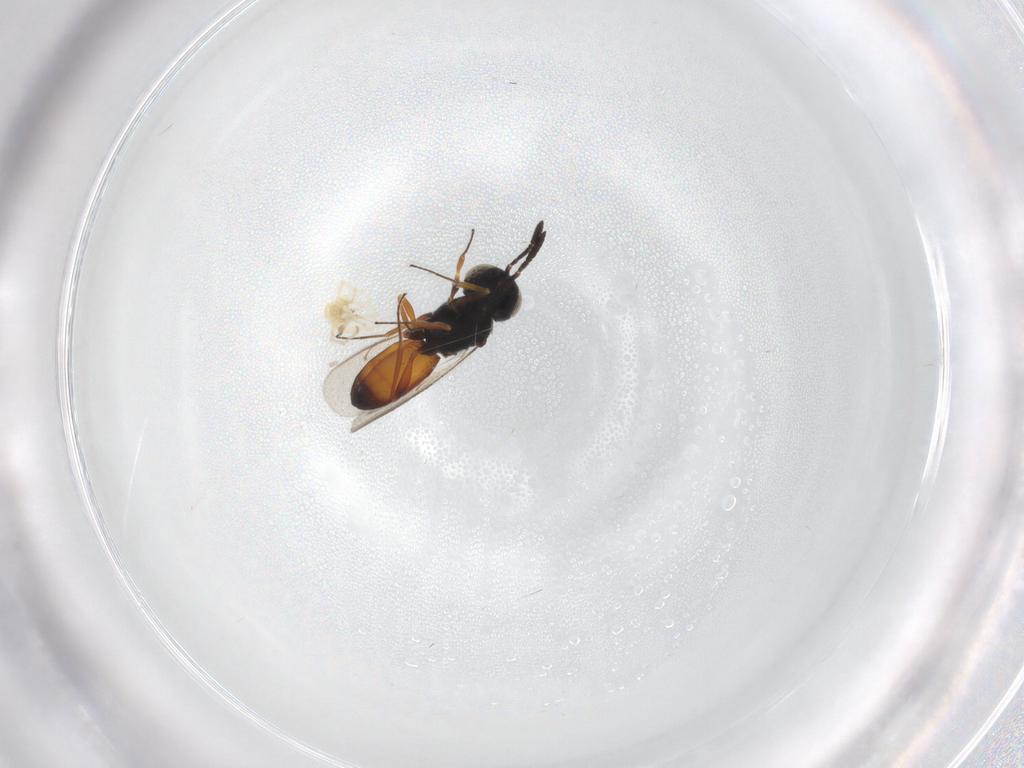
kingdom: Animalia
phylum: Arthropoda
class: Arachnida
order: Trombidiformes
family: Erythraeidae
